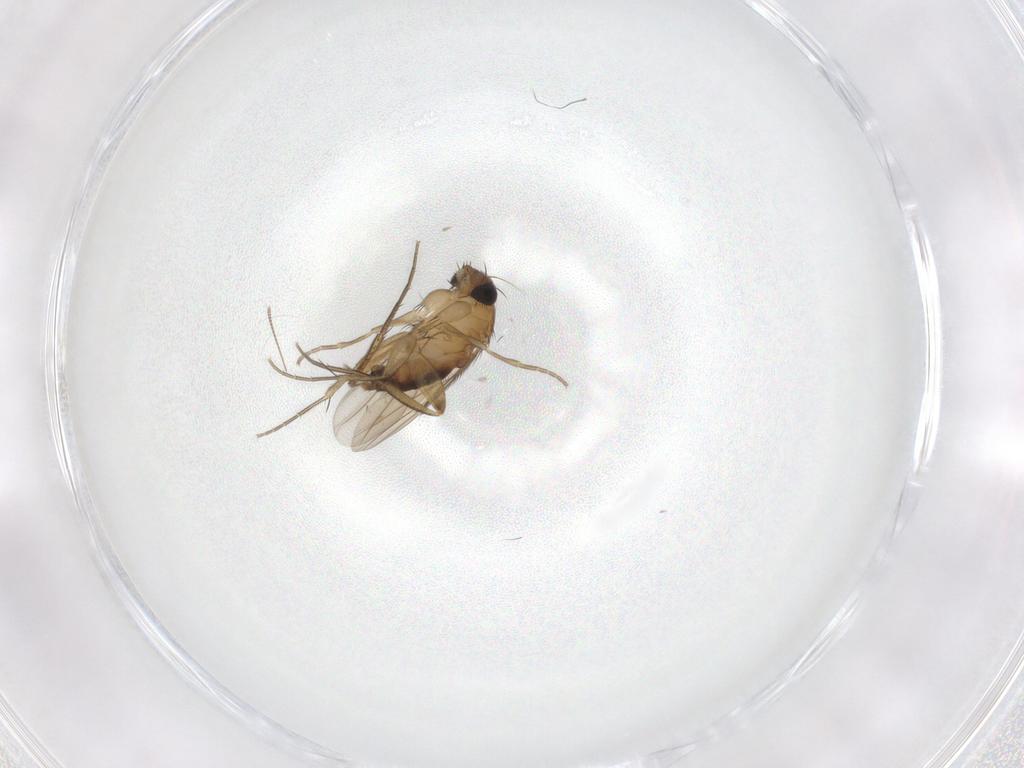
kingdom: Animalia
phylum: Arthropoda
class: Insecta
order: Diptera
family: Phoridae
